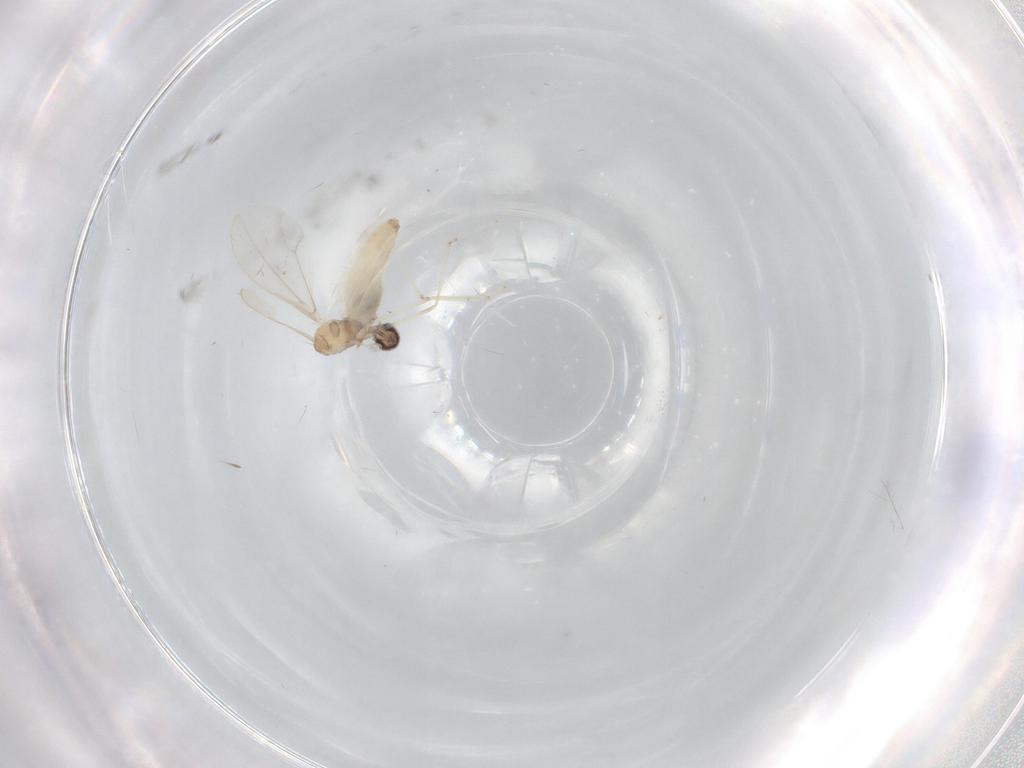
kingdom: Animalia
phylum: Arthropoda
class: Insecta
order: Diptera
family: Cecidomyiidae
